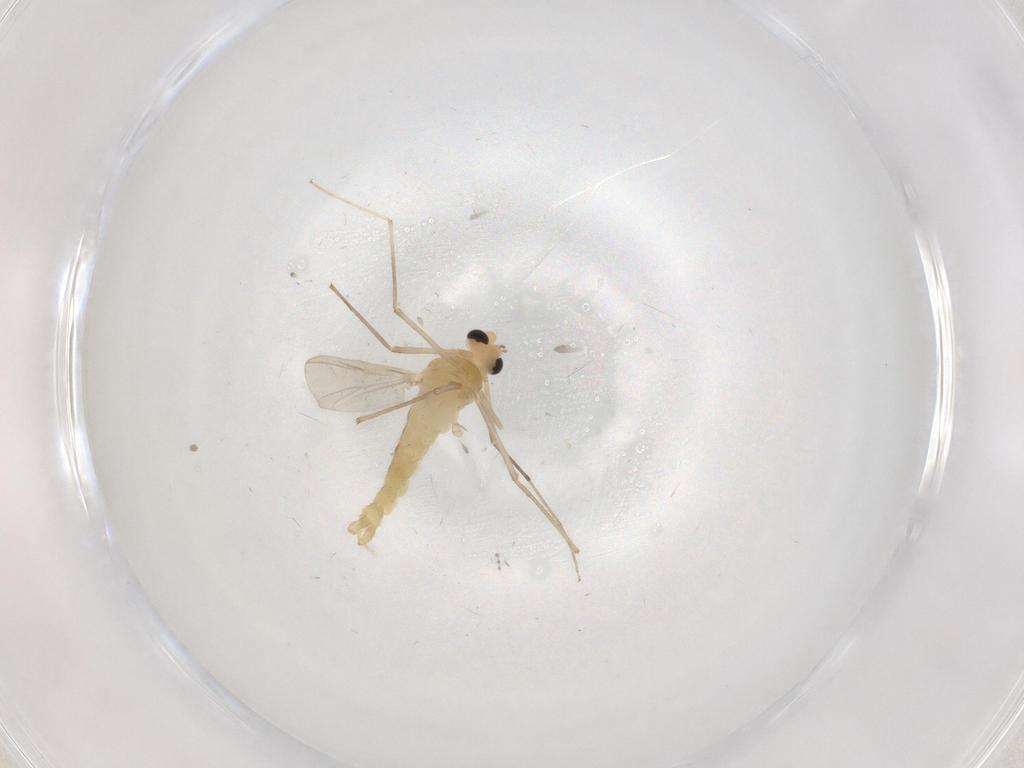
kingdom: Animalia
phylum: Arthropoda
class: Insecta
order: Diptera
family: Chironomidae
